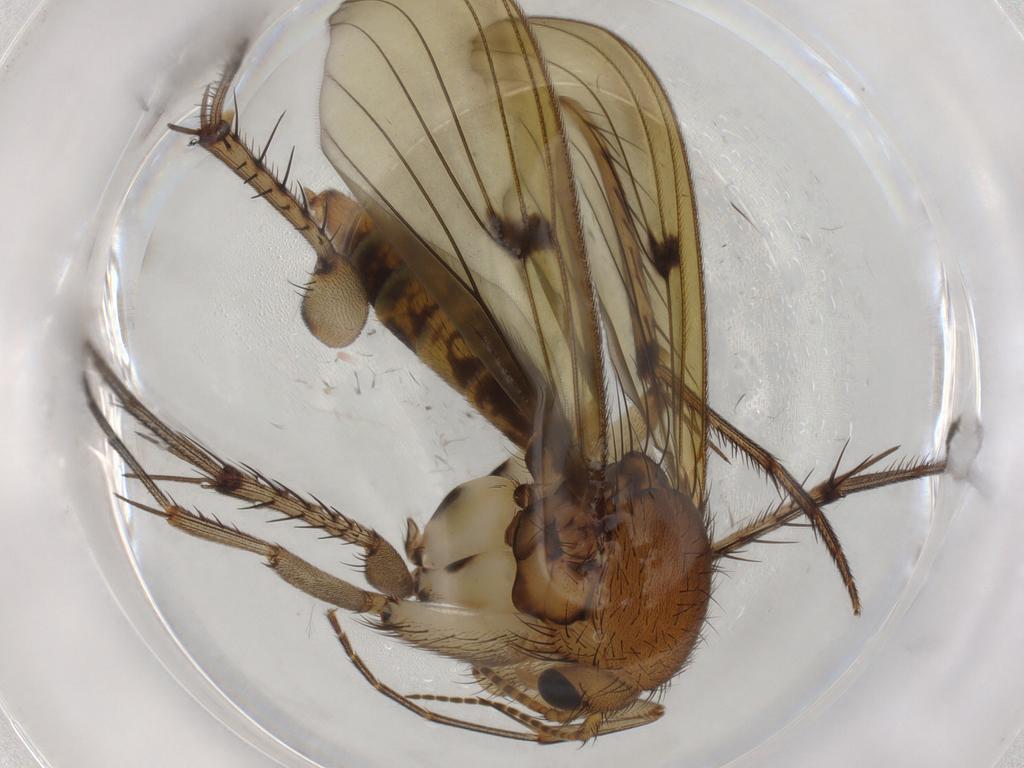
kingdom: Animalia
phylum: Arthropoda
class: Insecta
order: Diptera
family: Mycetophilidae
